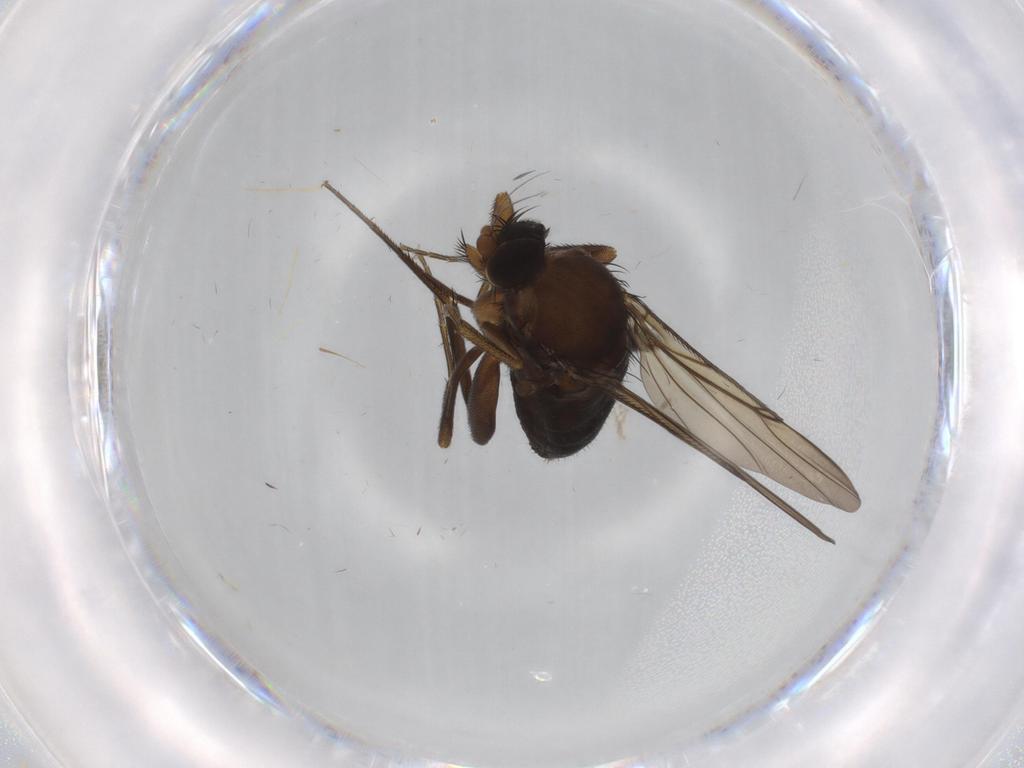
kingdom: Animalia
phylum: Arthropoda
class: Insecta
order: Diptera
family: Phoridae
